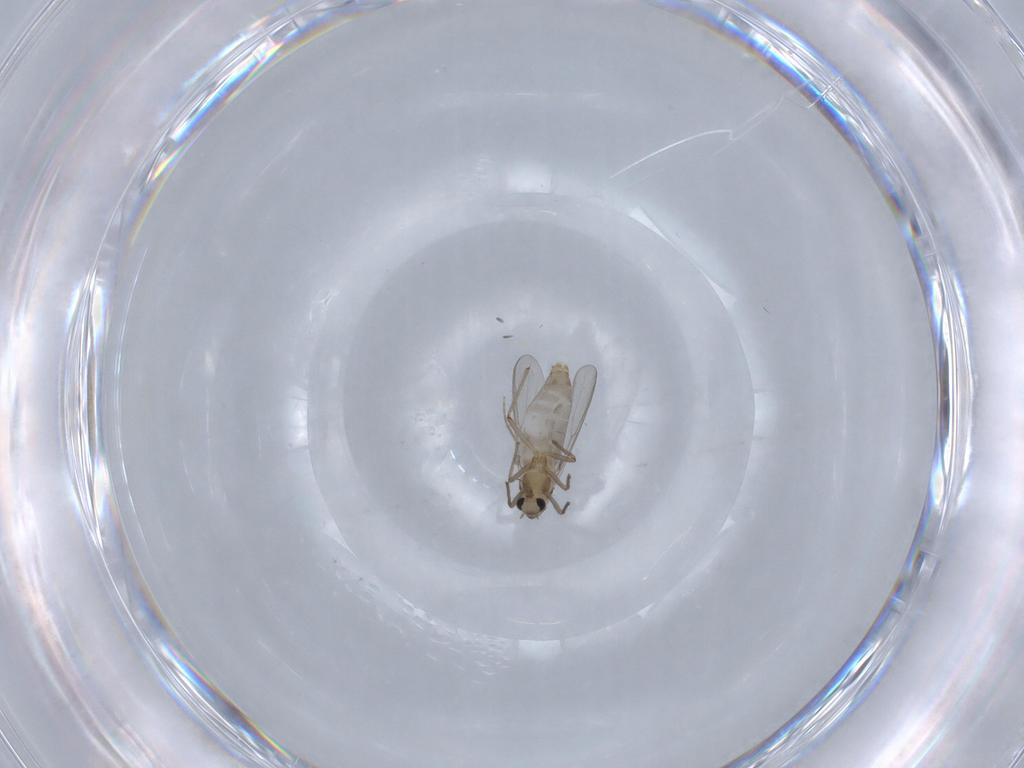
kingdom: Animalia
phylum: Arthropoda
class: Insecta
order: Diptera
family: Chironomidae
